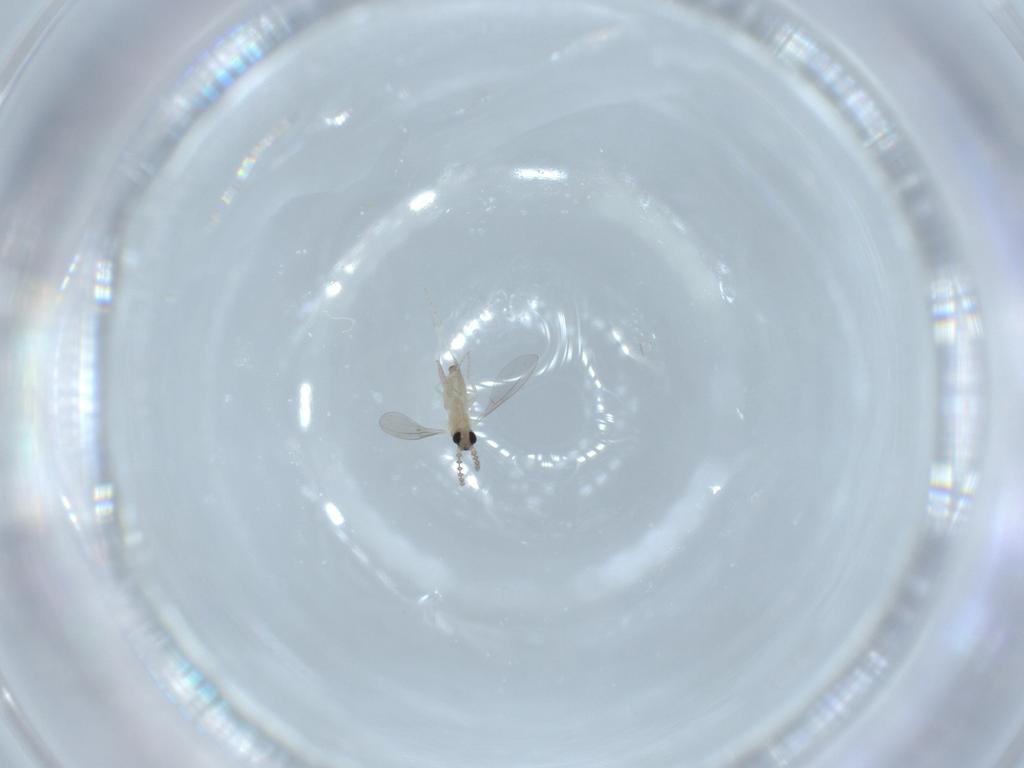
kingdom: Animalia
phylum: Arthropoda
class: Insecta
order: Diptera
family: Cecidomyiidae
